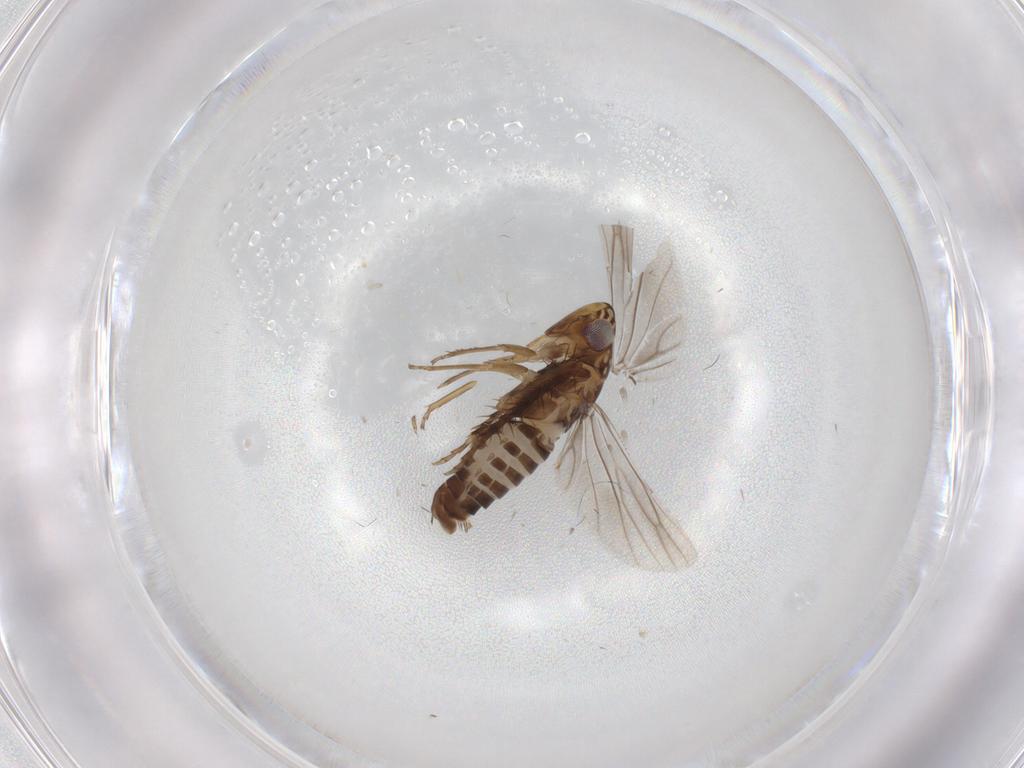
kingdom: Animalia
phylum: Arthropoda
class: Insecta
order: Hemiptera
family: Cicadellidae
